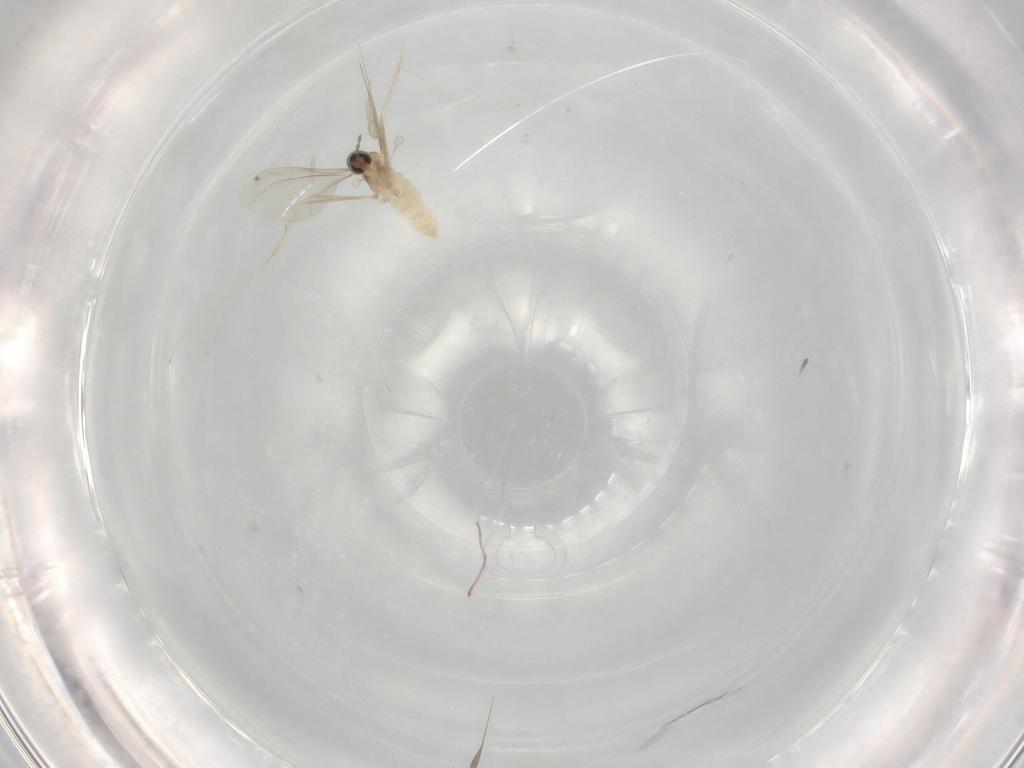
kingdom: Animalia
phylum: Arthropoda
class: Insecta
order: Diptera
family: Cecidomyiidae
